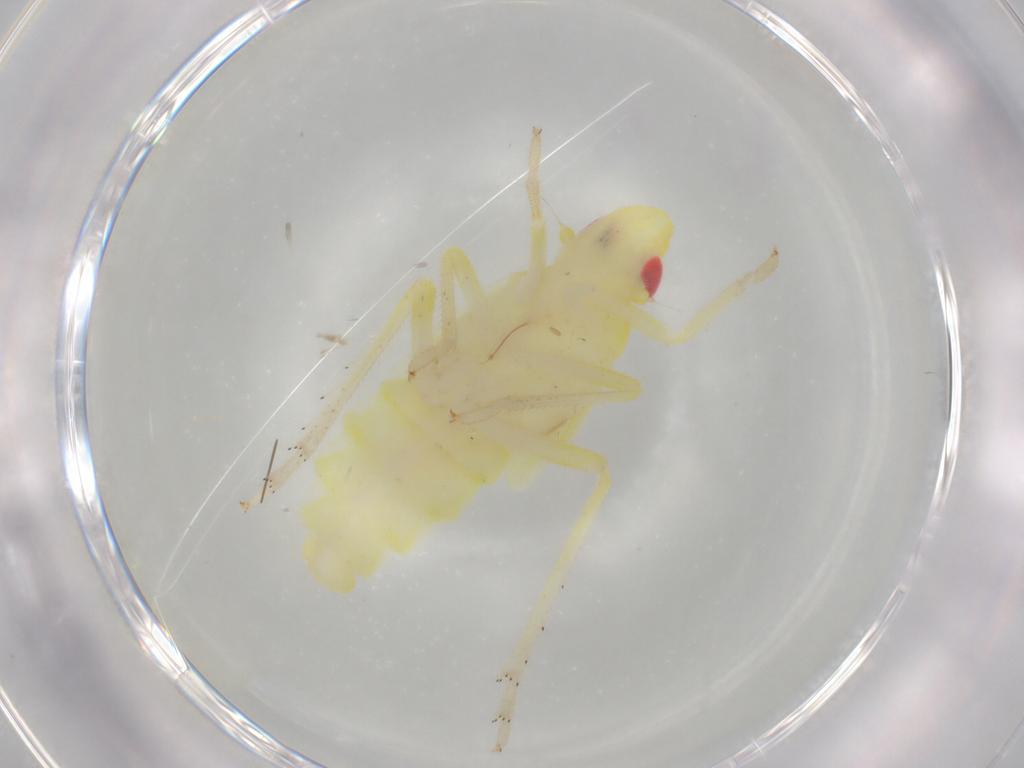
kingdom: Animalia
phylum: Arthropoda
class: Insecta
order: Hemiptera
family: Tropiduchidae
